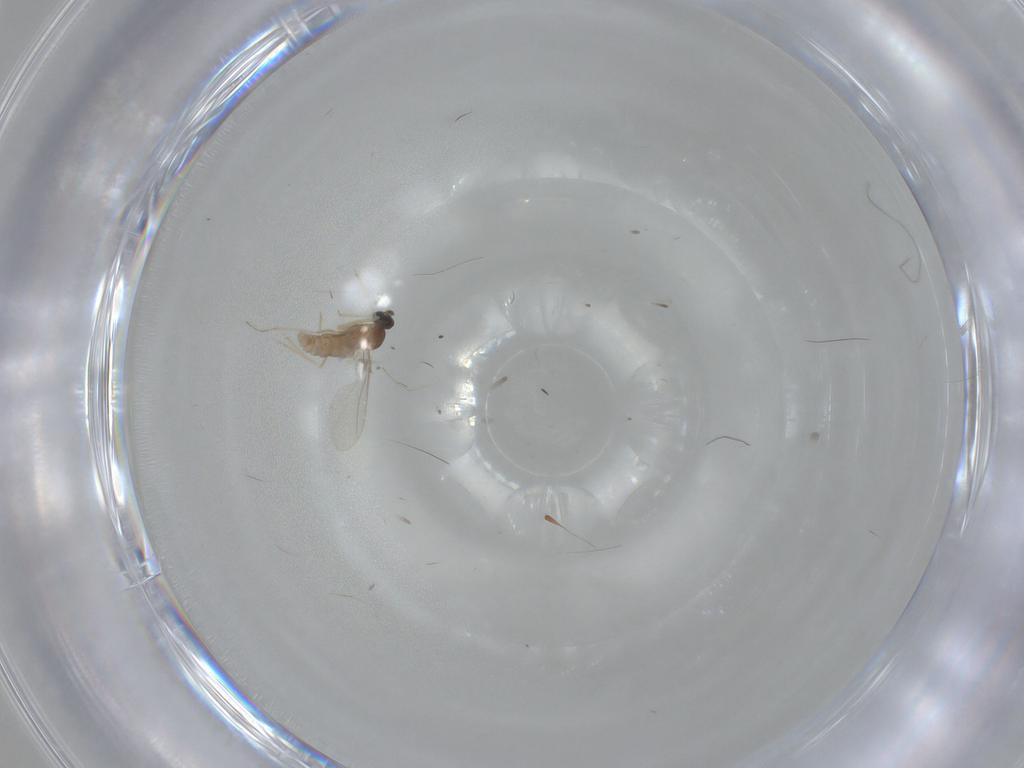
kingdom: Animalia
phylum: Arthropoda
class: Insecta
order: Diptera
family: Cecidomyiidae
